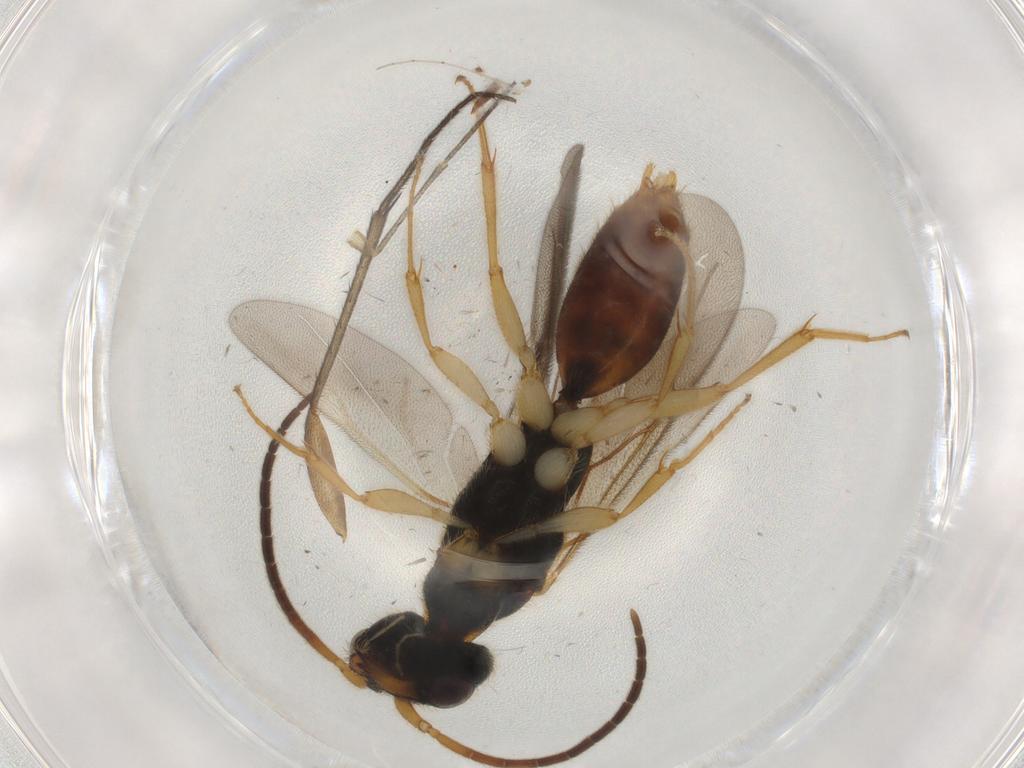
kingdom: Animalia
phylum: Arthropoda
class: Insecta
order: Hymenoptera
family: Bethylidae
